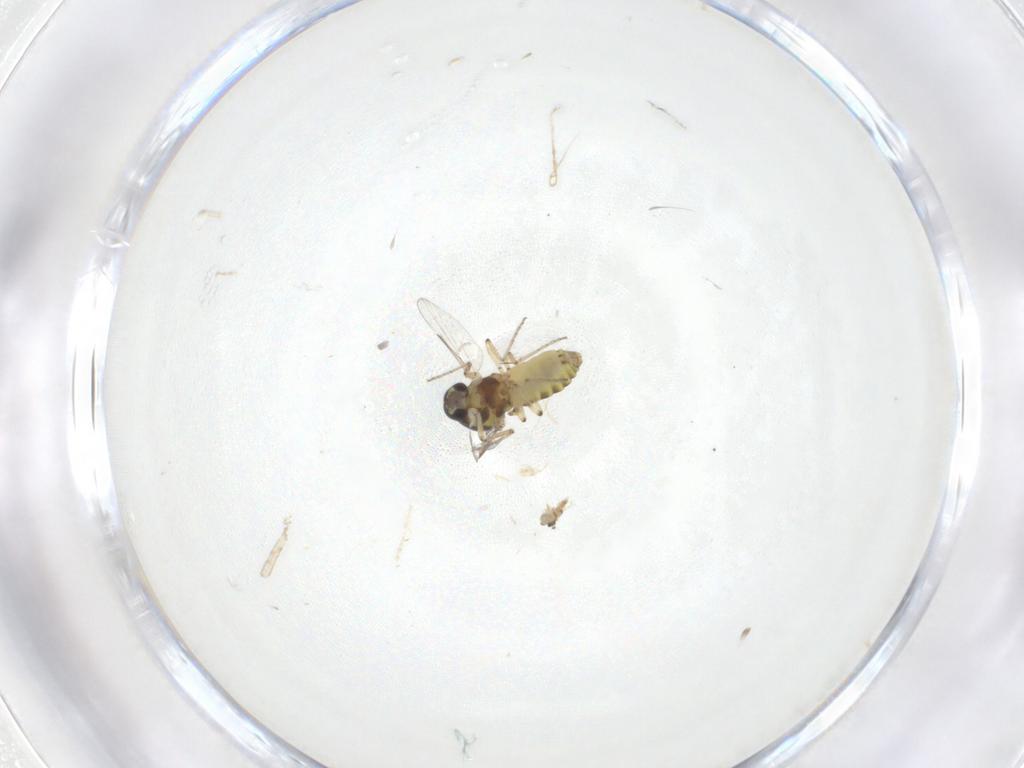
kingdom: Animalia
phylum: Arthropoda
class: Insecta
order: Diptera
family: Ceratopogonidae
